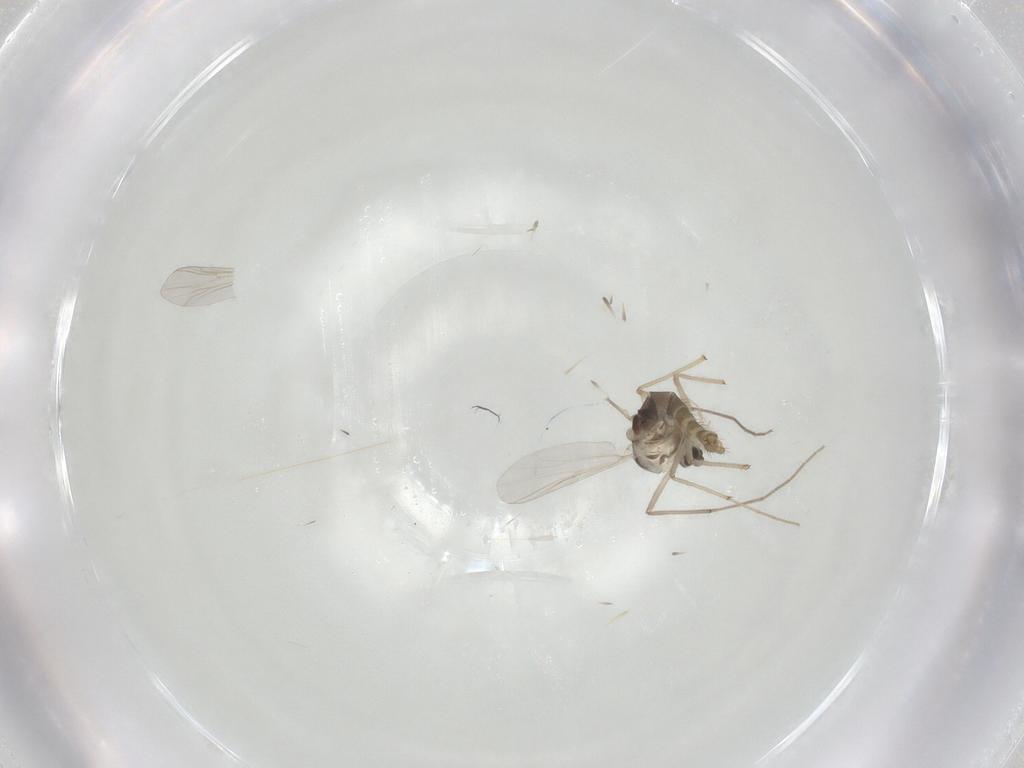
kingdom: Animalia
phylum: Arthropoda
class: Insecta
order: Diptera
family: Chironomidae
